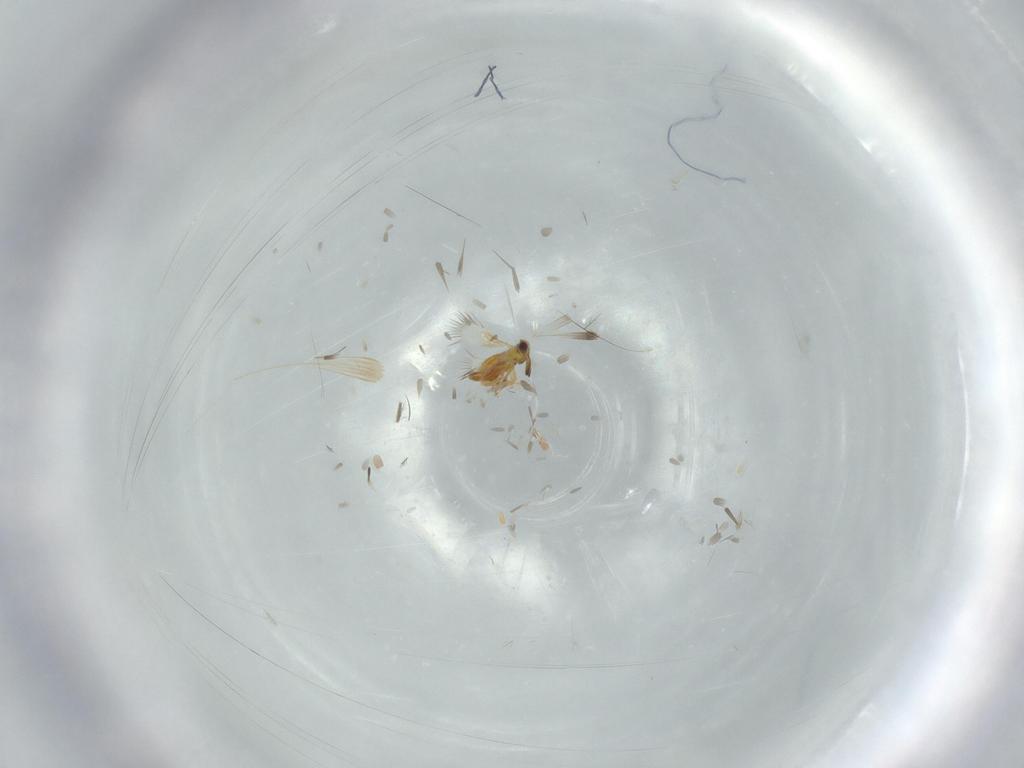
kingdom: Animalia
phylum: Arthropoda
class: Insecta
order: Hymenoptera
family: Signiphoridae
